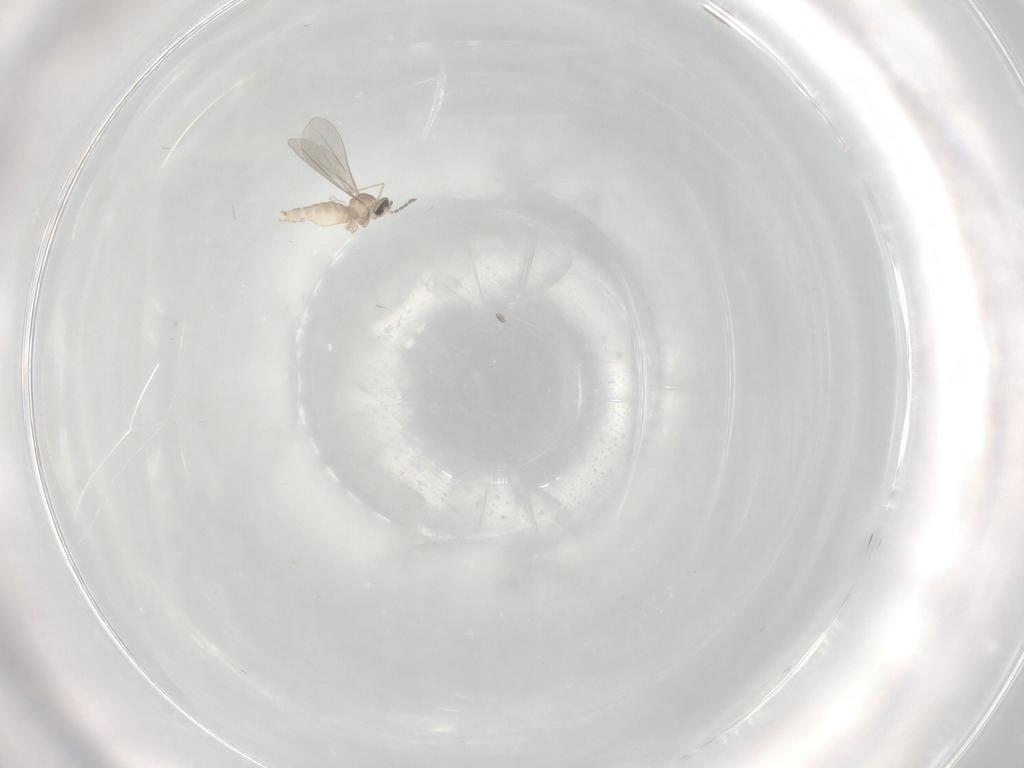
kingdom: Animalia
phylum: Arthropoda
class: Insecta
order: Diptera
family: Cecidomyiidae
